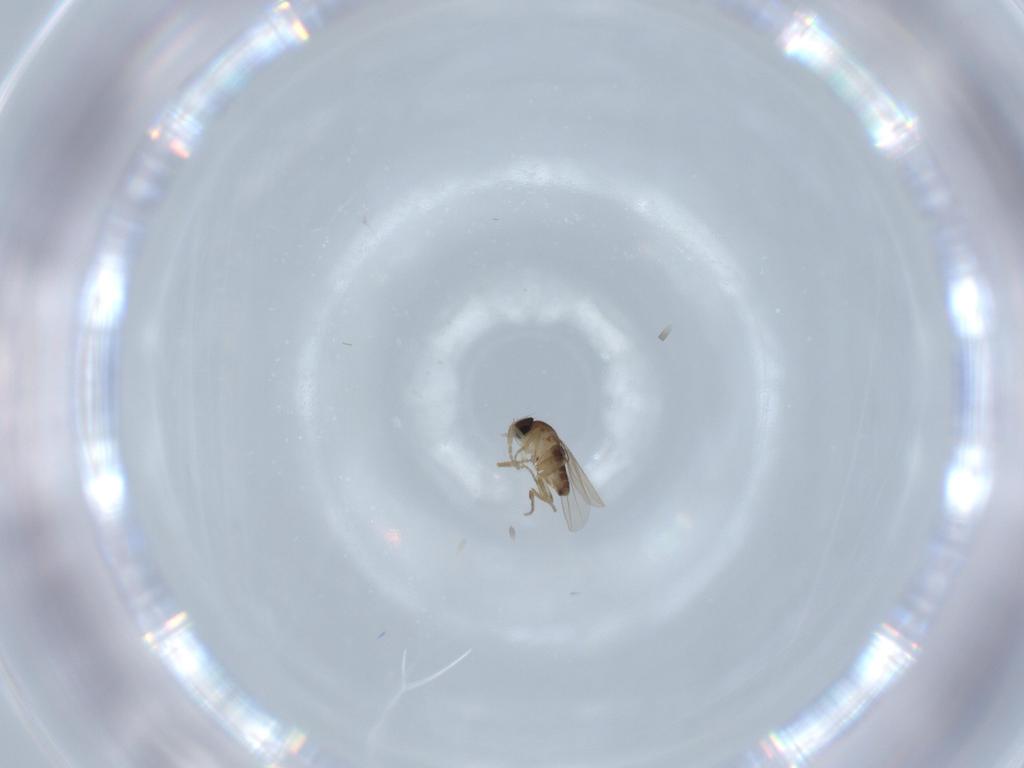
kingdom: Animalia
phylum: Arthropoda
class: Insecta
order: Diptera
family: Phoridae
